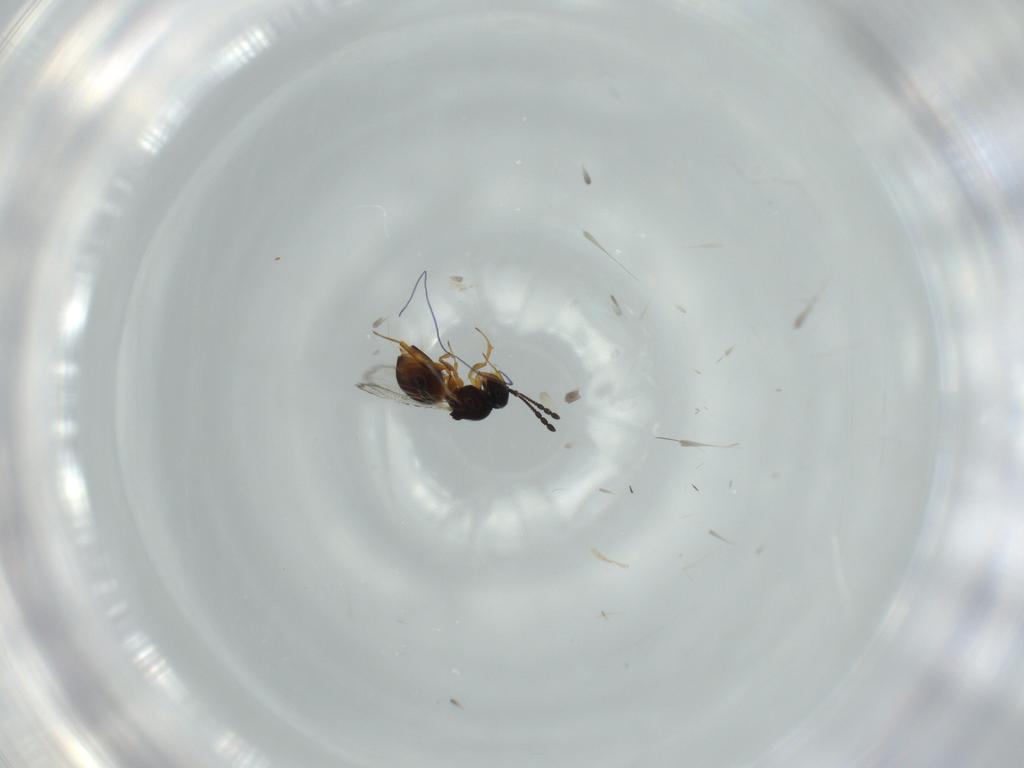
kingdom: Animalia
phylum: Arthropoda
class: Insecta
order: Hymenoptera
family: Figitidae
